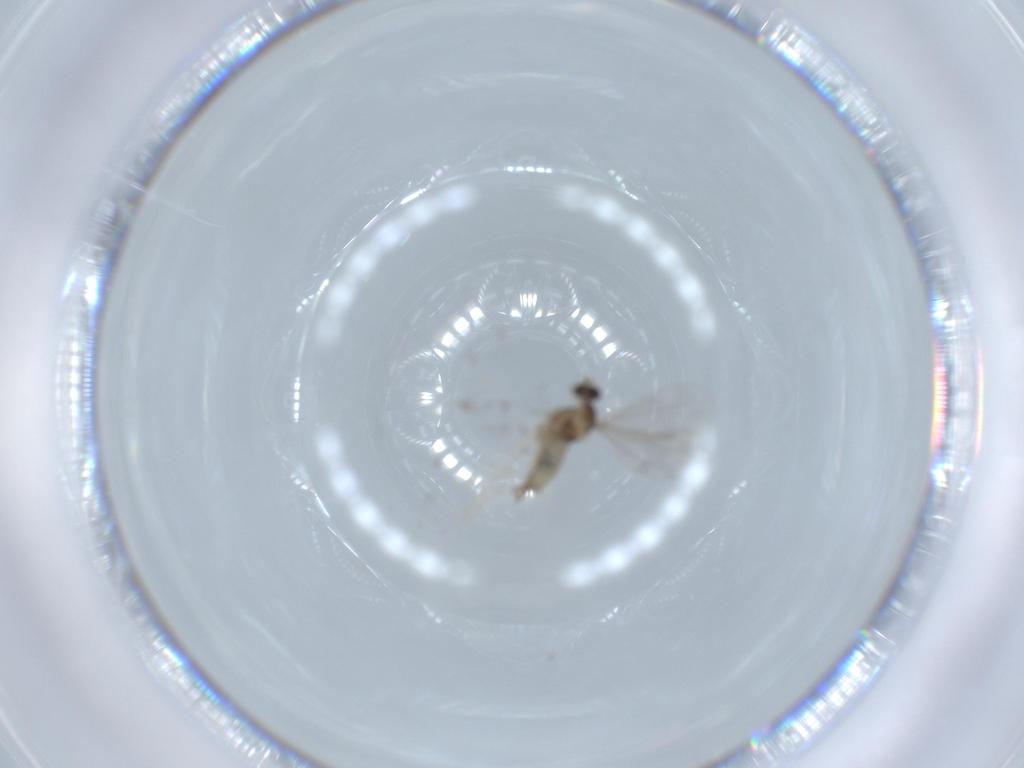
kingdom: Animalia
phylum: Arthropoda
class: Insecta
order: Diptera
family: Cecidomyiidae
